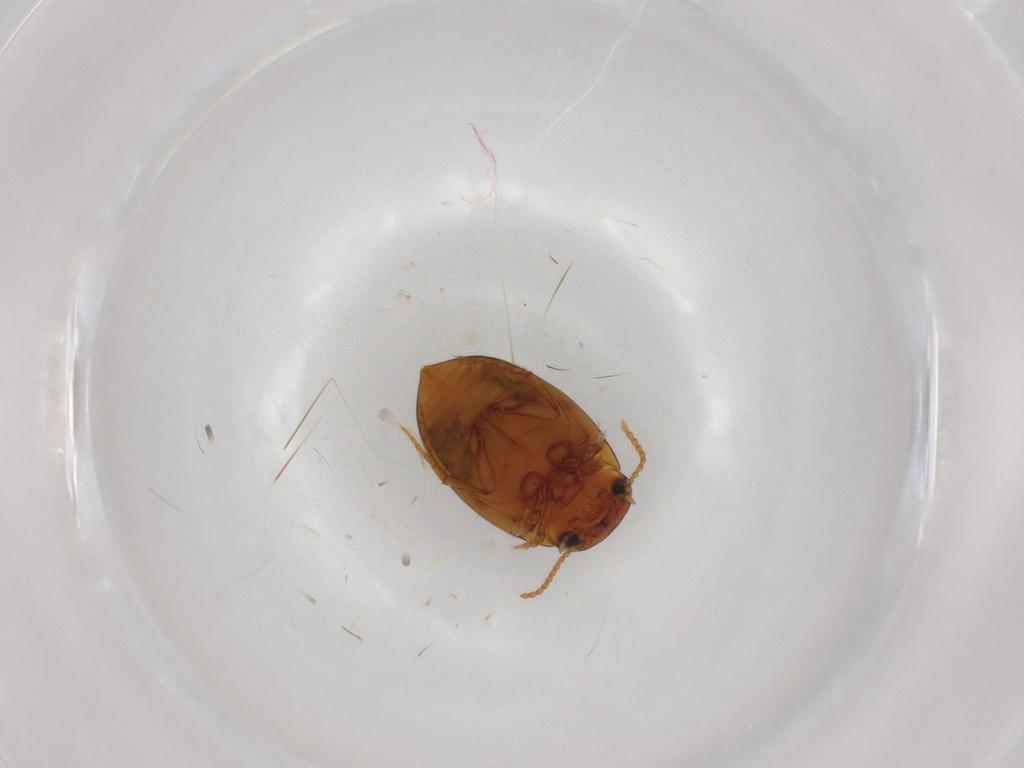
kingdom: Animalia
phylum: Arthropoda
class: Insecta
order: Coleoptera
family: Dytiscidae
